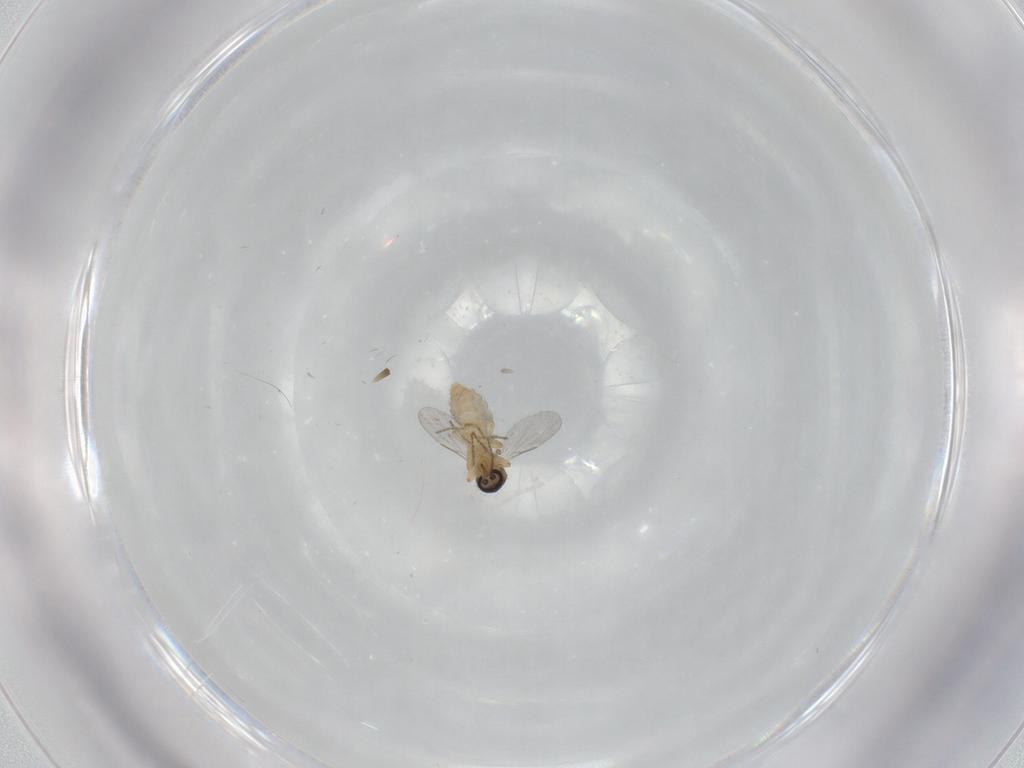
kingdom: Animalia
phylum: Arthropoda
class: Insecta
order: Diptera
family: Ceratopogonidae
